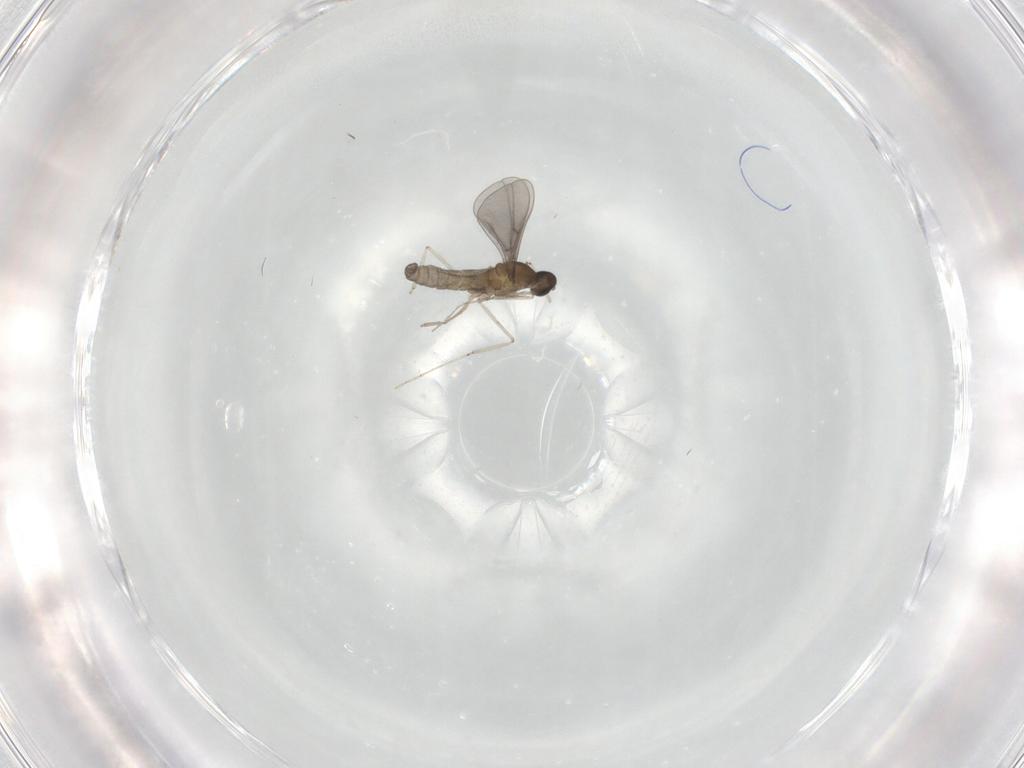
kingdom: Animalia
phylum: Arthropoda
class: Insecta
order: Diptera
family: Cecidomyiidae
